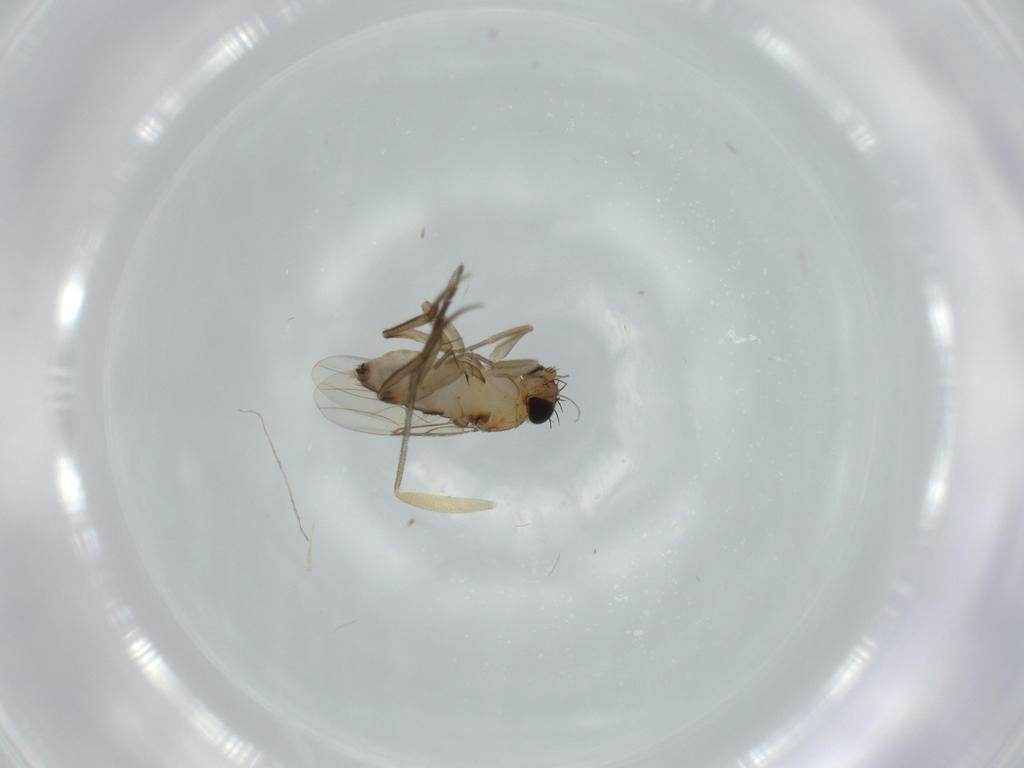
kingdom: Animalia
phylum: Arthropoda
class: Insecta
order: Diptera
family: Phoridae
